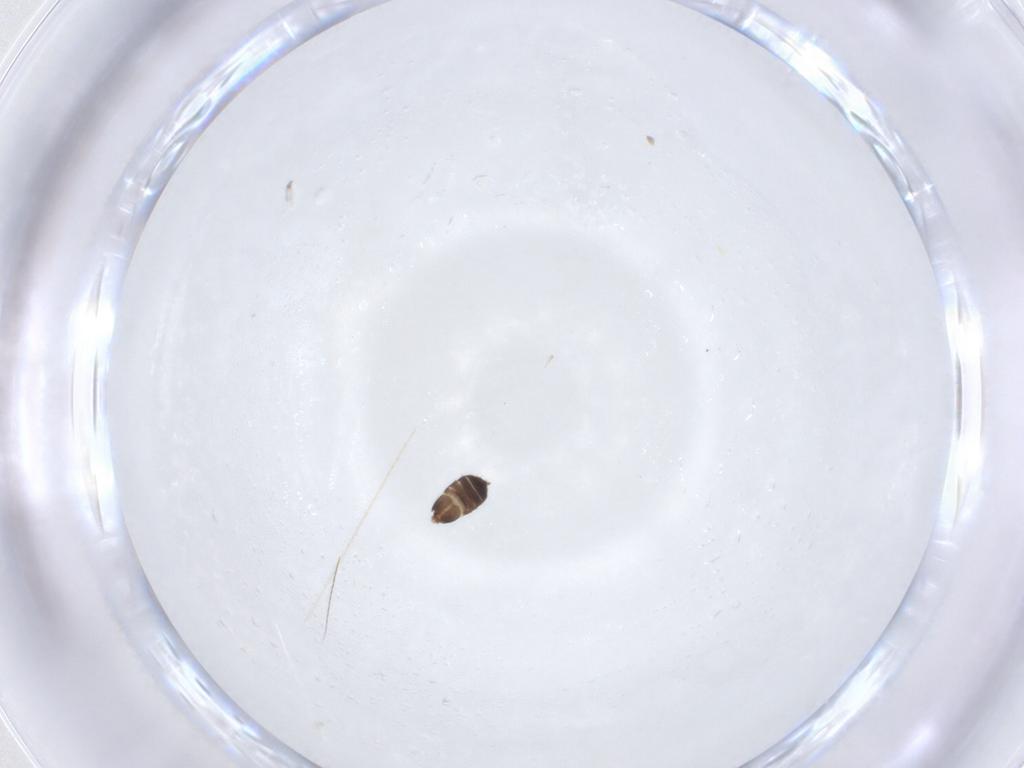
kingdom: Animalia
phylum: Arthropoda
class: Insecta
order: Lepidoptera
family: Erebidae
